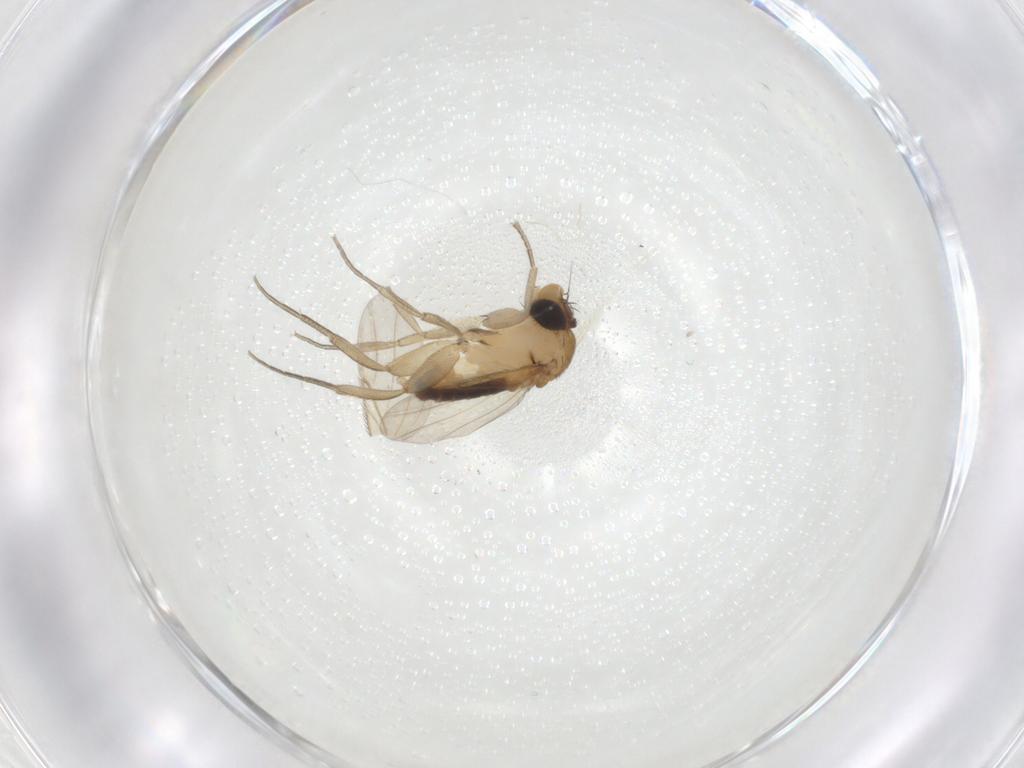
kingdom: Animalia
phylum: Arthropoda
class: Insecta
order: Diptera
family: Phoridae
